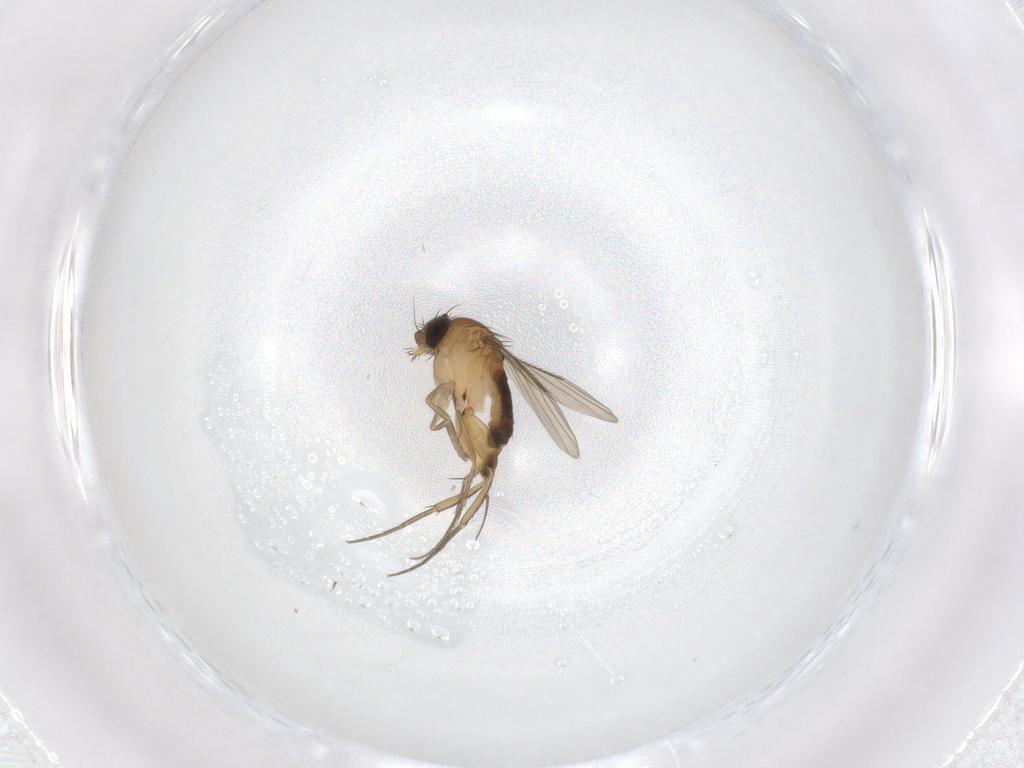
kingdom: Animalia
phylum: Arthropoda
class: Insecta
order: Diptera
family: Phoridae
